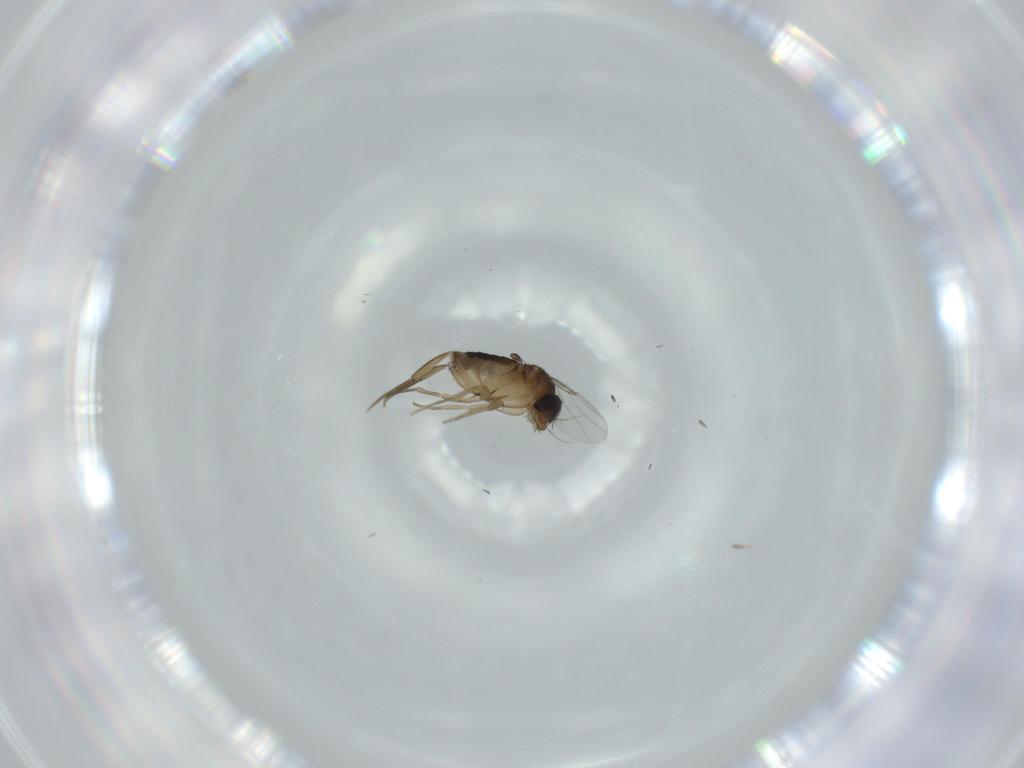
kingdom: Animalia
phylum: Arthropoda
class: Insecta
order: Diptera
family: Phoridae
